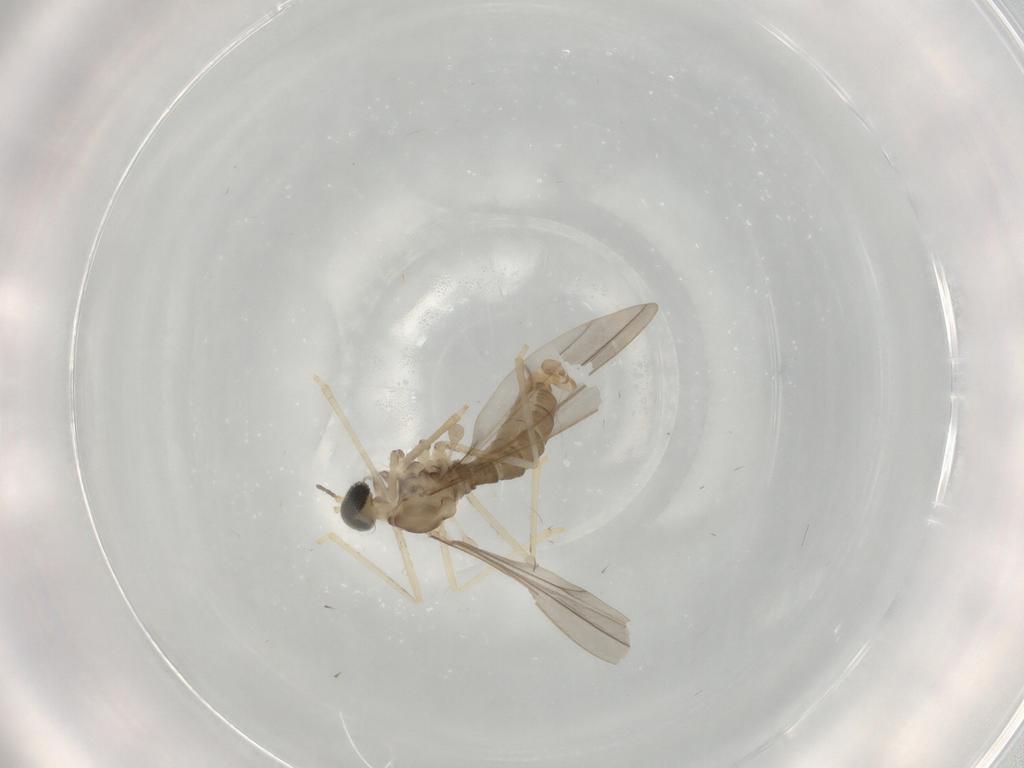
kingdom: Animalia
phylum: Arthropoda
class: Insecta
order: Diptera
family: Cecidomyiidae
